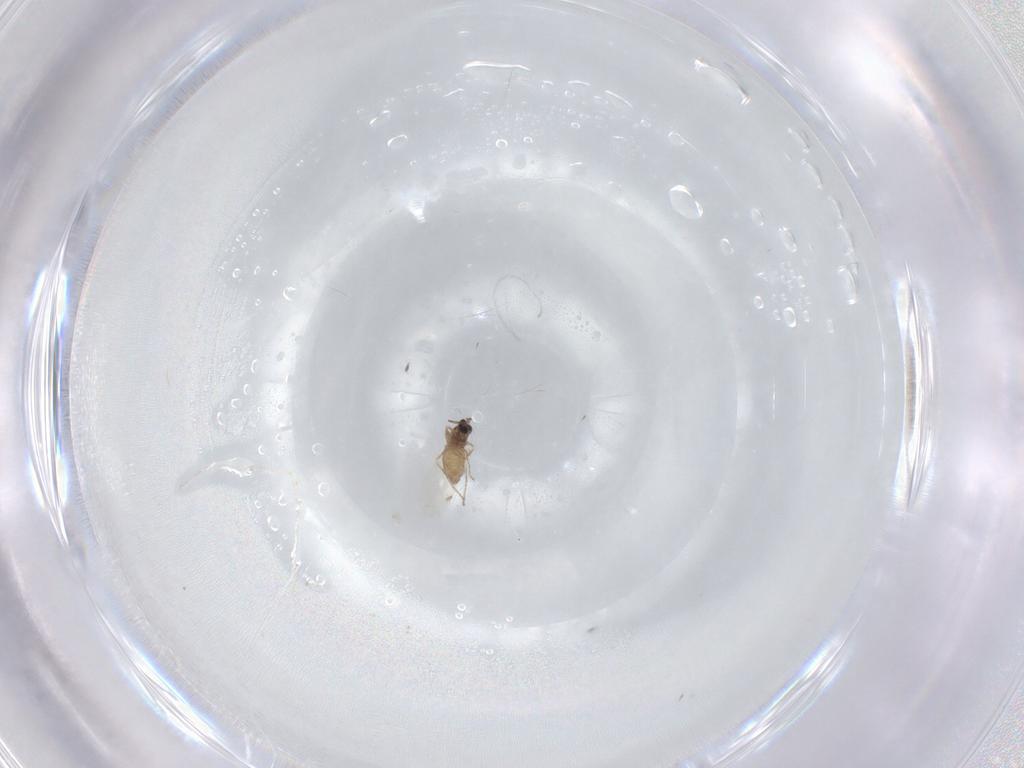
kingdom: Animalia
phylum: Arthropoda
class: Insecta
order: Diptera
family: Cecidomyiidae
